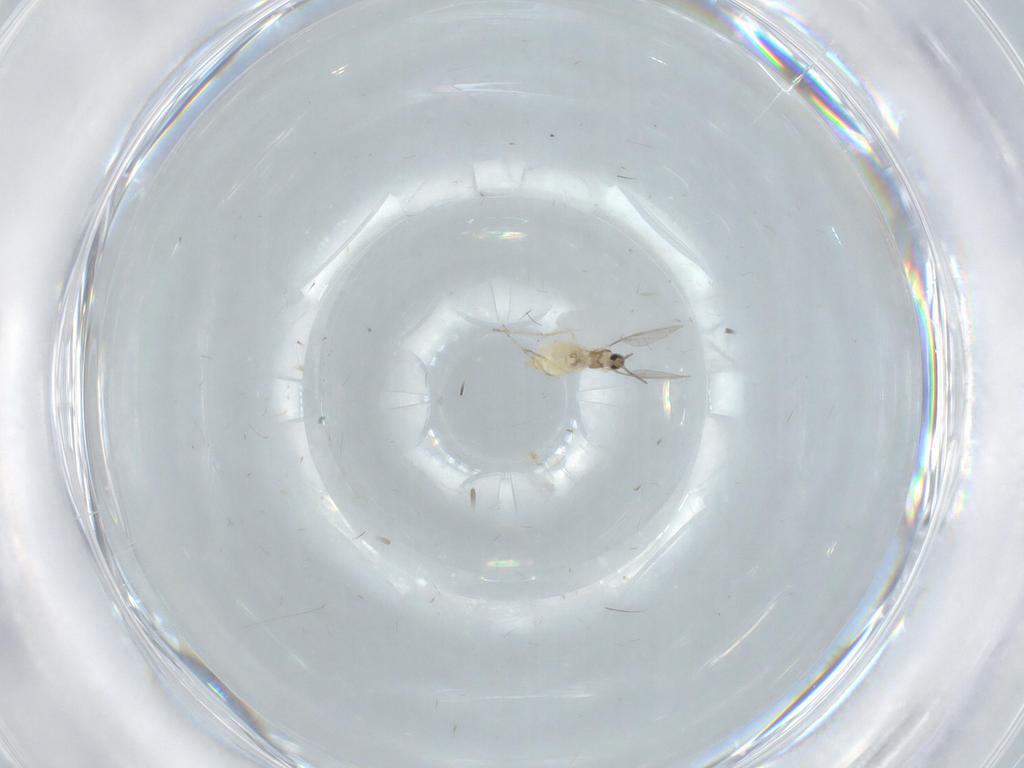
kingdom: Animalia
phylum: Arthropoda
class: Insecta
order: Diptera
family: Cecidomyiidae
